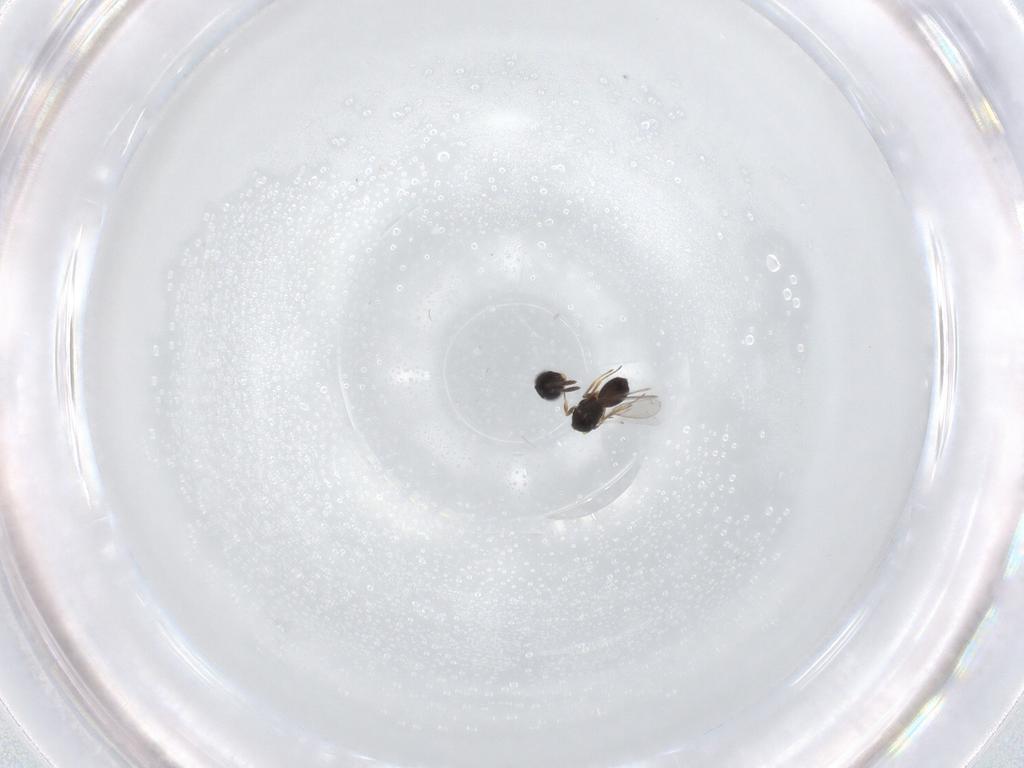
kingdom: Animalia
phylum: Arthropoda
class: Insecta
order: Hymenoptera
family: Scelionidae
